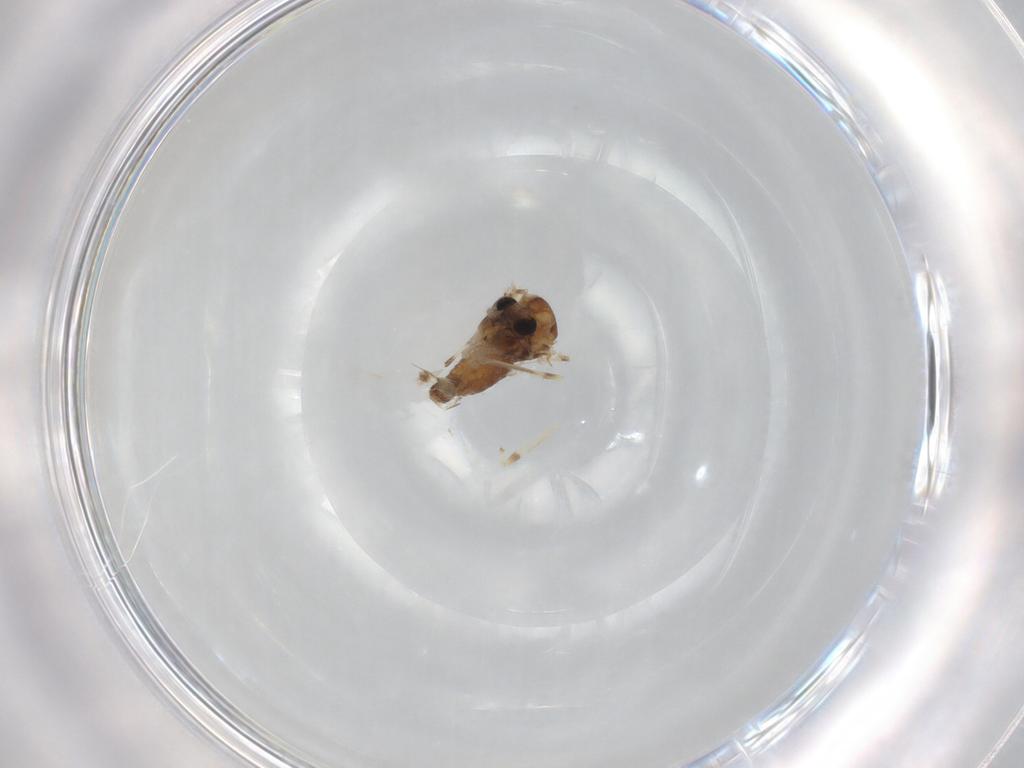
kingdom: Animalia
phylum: Arthropoda
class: Insecta
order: Diptera
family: Glossinidae
